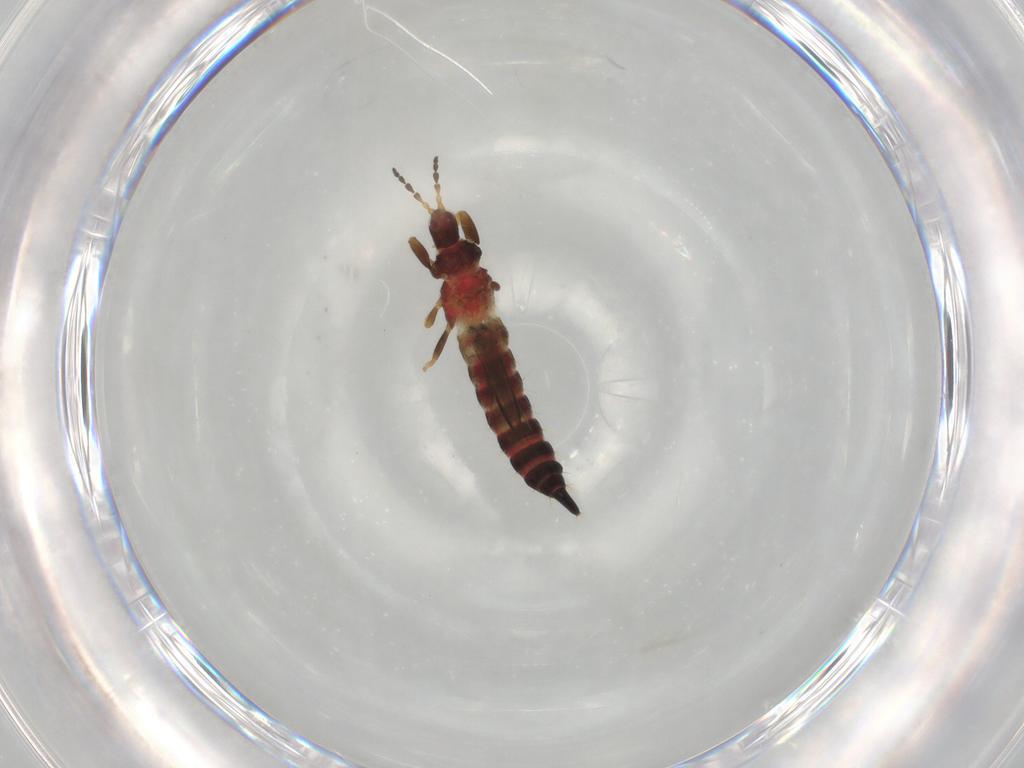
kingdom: Animalia
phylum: Arthropoda
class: Insecta
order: Thysanoptera
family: Phlaeothripidae
